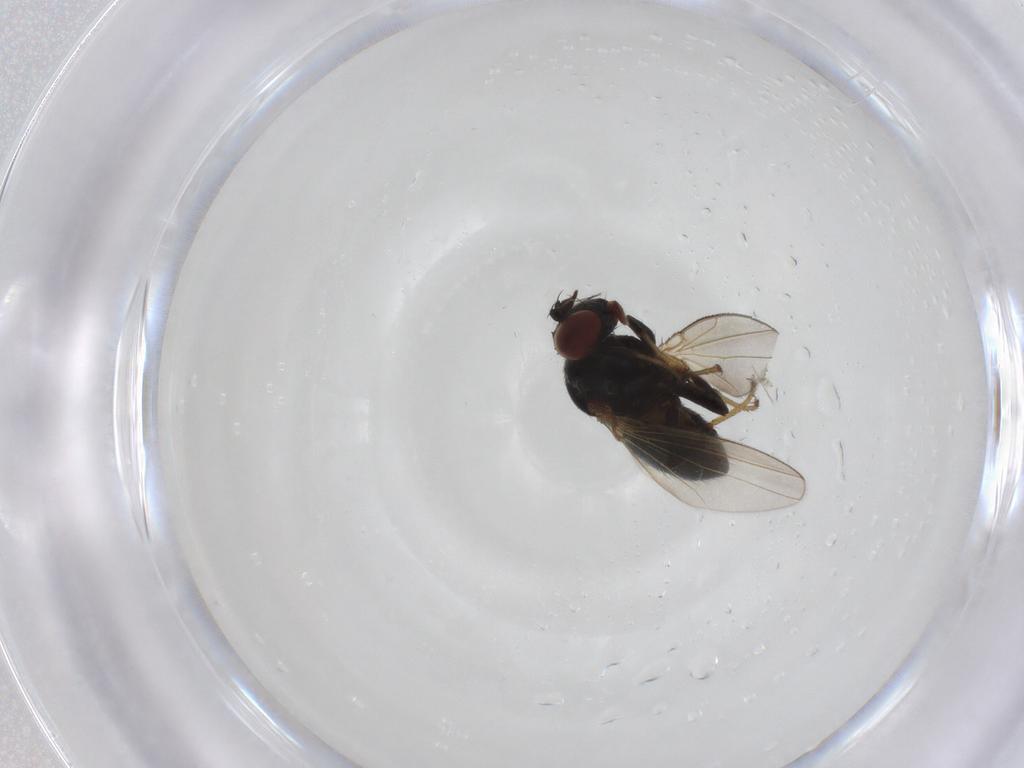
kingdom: Animalia
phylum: Arthropoda
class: Insecta
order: Diptera
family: Ephydridae
